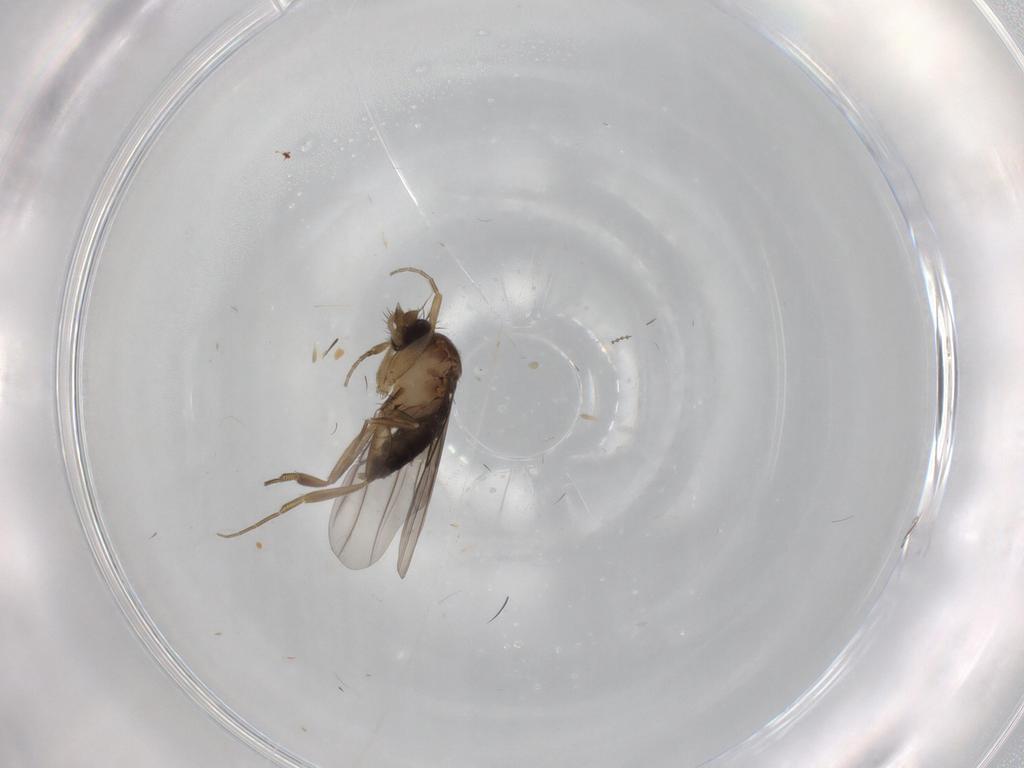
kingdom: Animalia
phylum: Arthropoda
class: Insecta
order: Diptera
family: Phoridae
